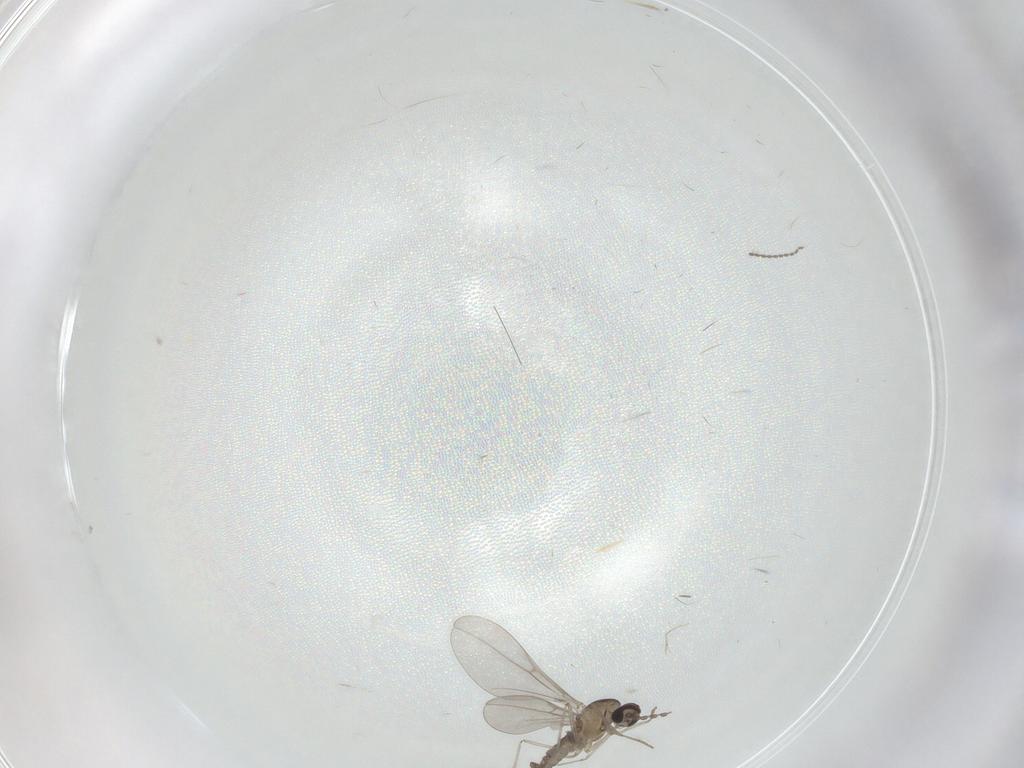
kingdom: Animalia
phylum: Arthropoda
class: Insecta
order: Diptera
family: Cecidomyiidae
